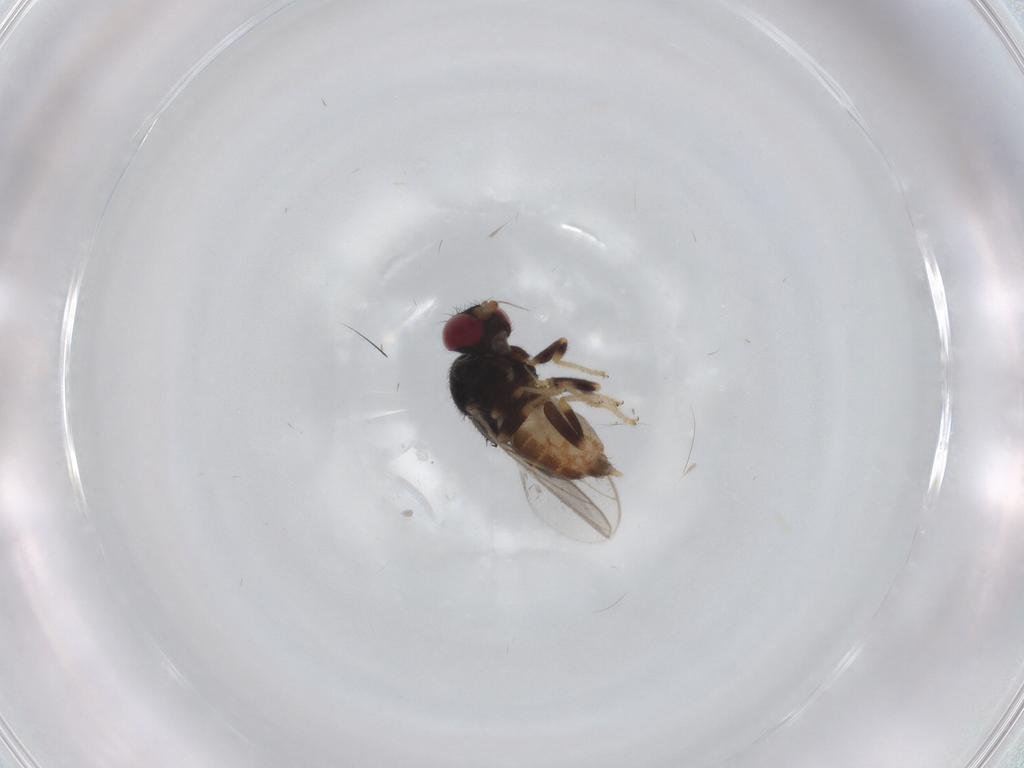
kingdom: Animalia
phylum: Arthropoda
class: Insecta
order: Diptera
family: Chloropidae
